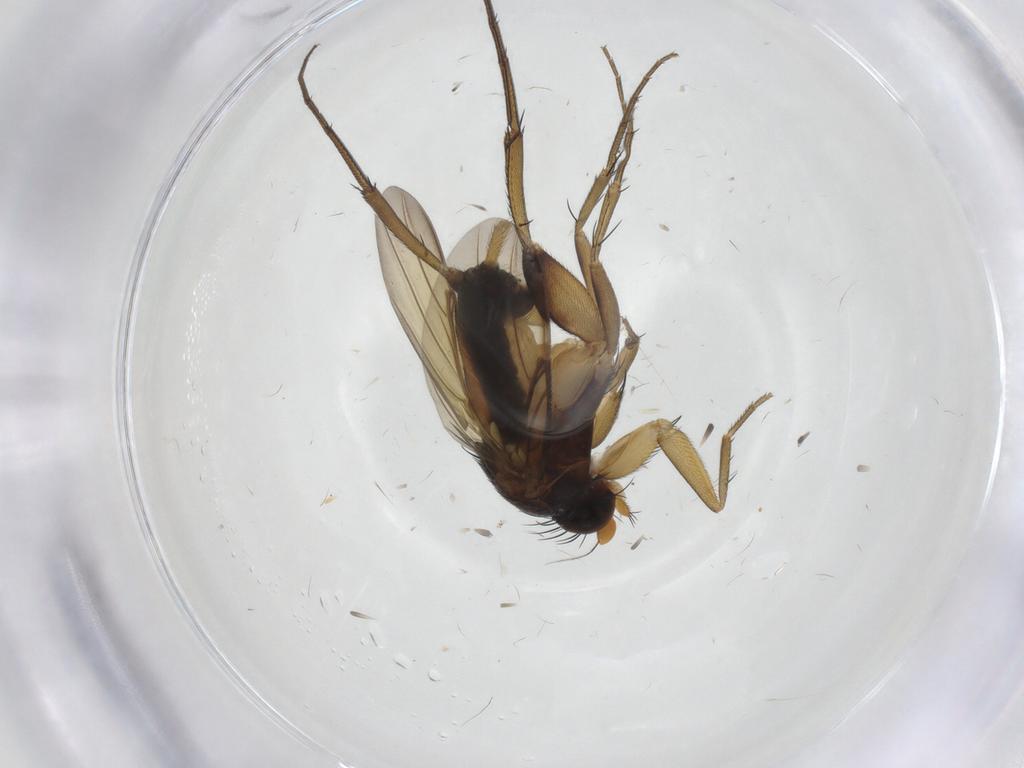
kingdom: Animalia
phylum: Arthropoda
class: Insecta
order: Diptera
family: Phoridae
